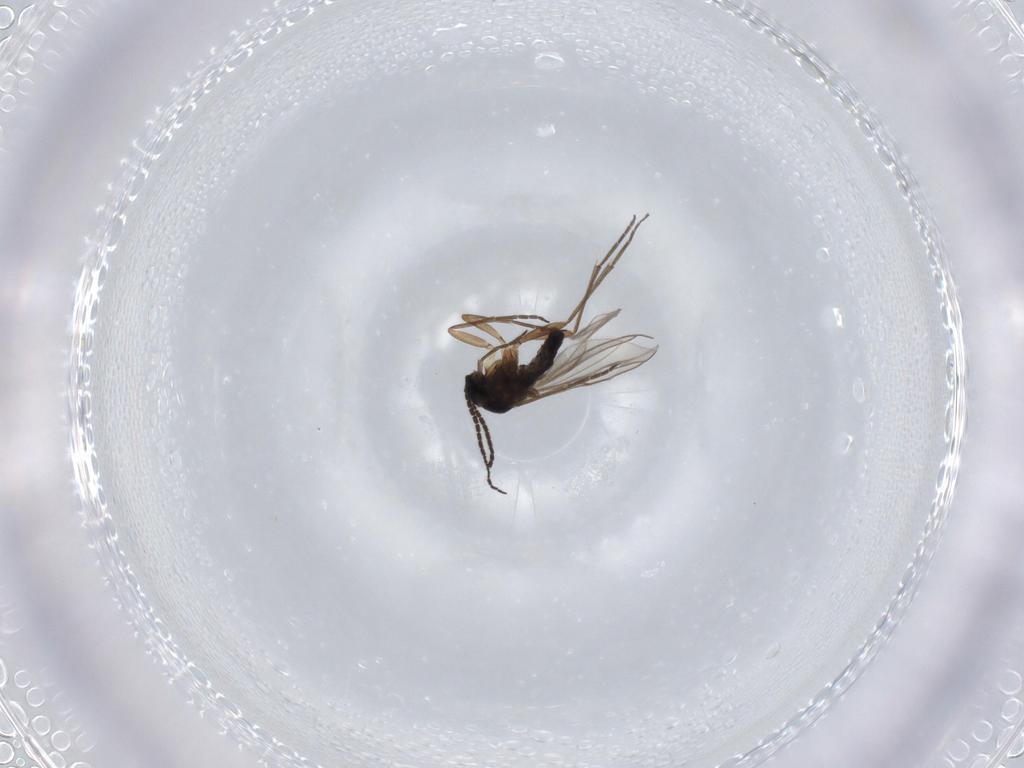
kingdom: Animalia
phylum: Arthropoda
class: Insecta
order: Diptera
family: Sciaridae
